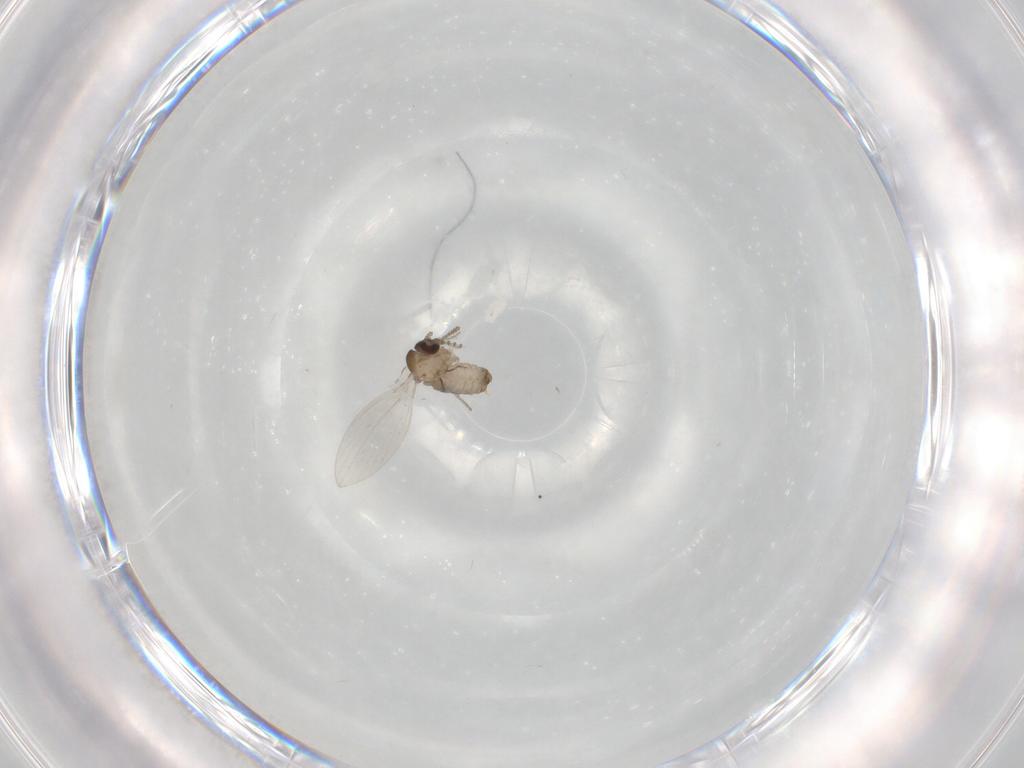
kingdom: Animalia
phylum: Arthropoda
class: Insecta
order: Diptera
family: Psychodidae
